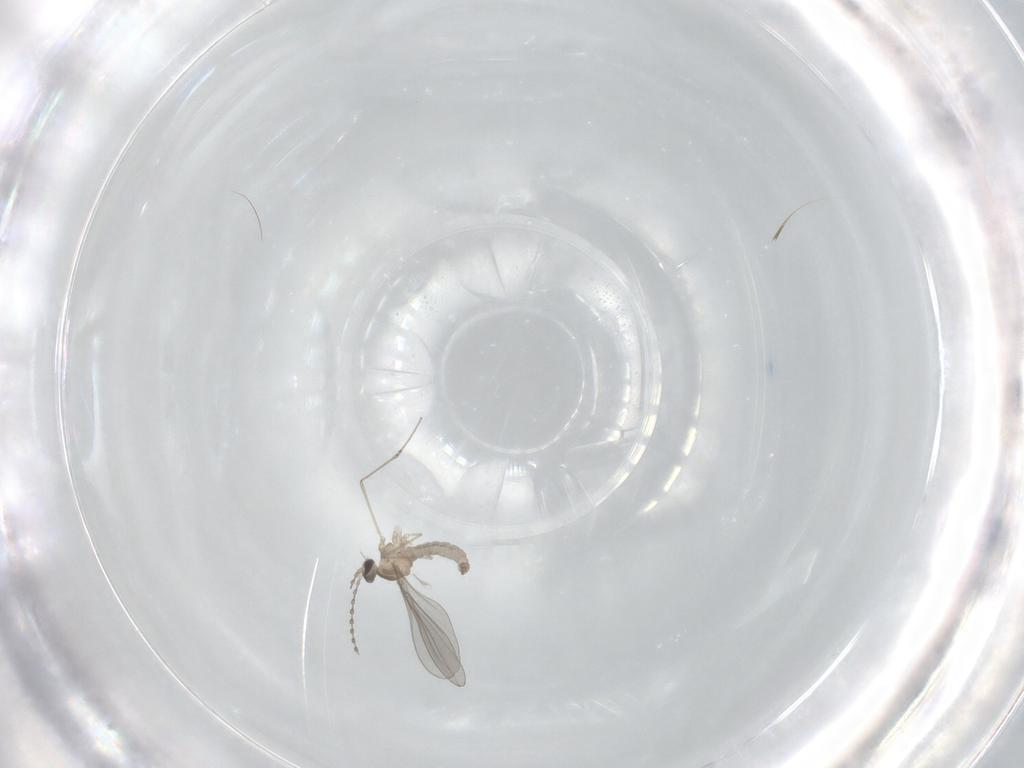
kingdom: Animalia
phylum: Arthropoda
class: Insecta
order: Diptera
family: Cecidomyiidae
